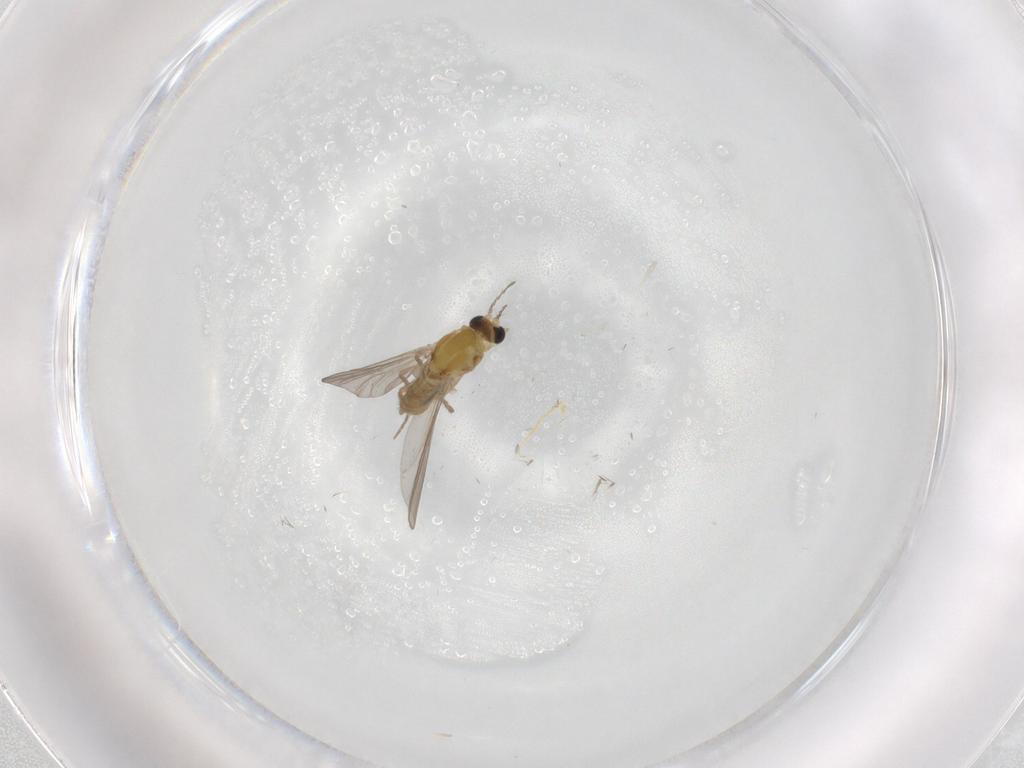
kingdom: Animalia
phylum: Arthropoda
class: Insecta
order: Diptera
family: Chironomidae
